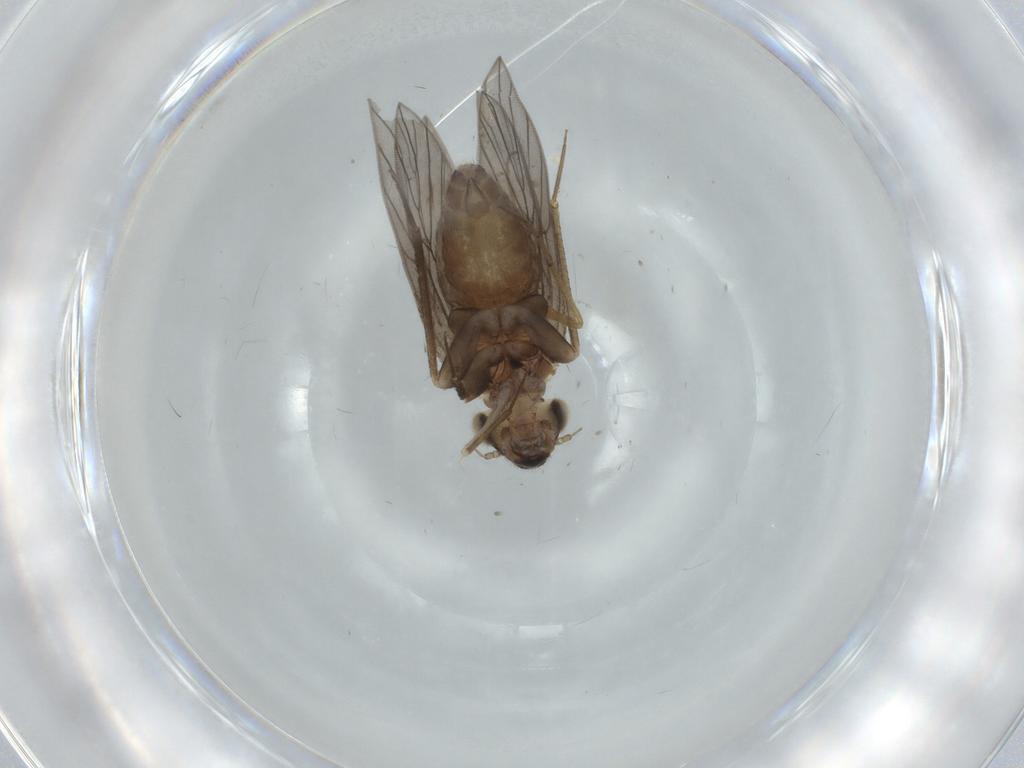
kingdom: Animalia
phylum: Arthropoda
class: Insecta
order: Psocodea
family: Lepidopsocidae
